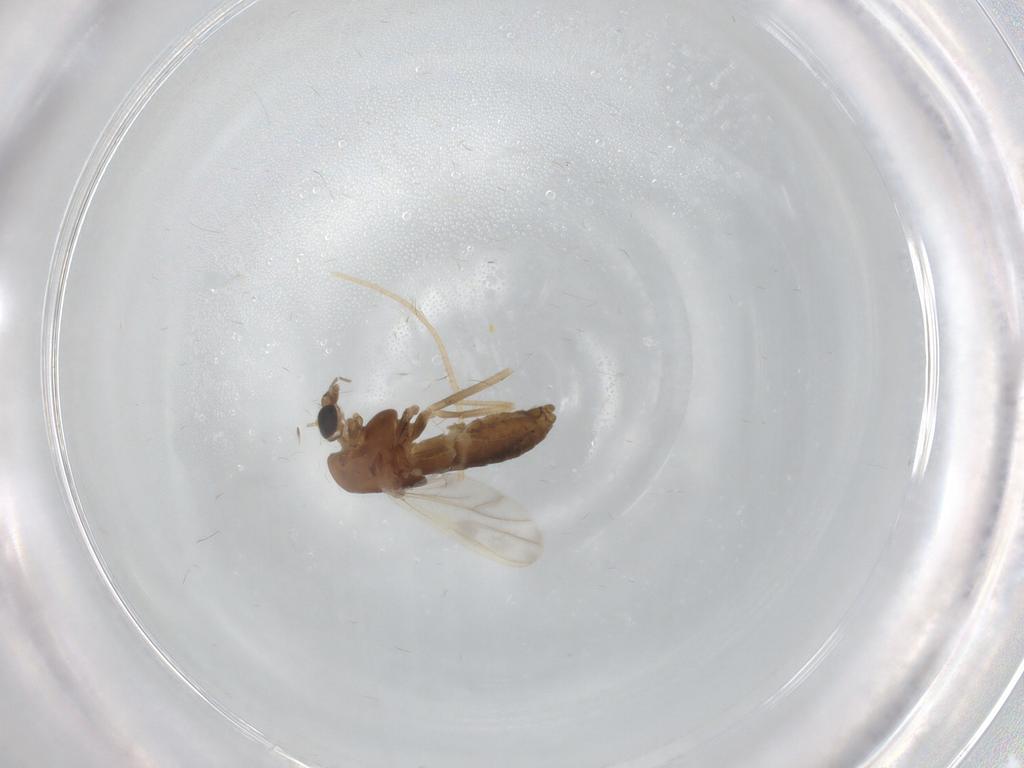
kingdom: Animalia
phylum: Arthropoda
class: Insecta
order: Diptera
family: Chironomidae
